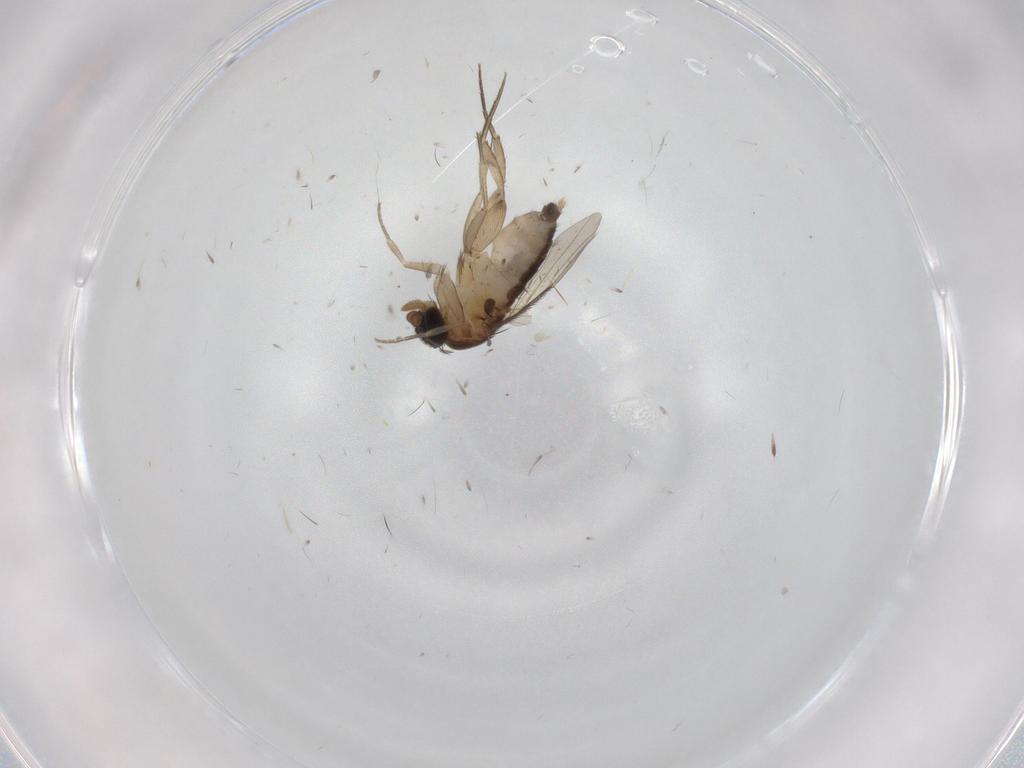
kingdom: Animalia
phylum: Arthropoda
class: Insecta
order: Diptera
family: Phoridae
